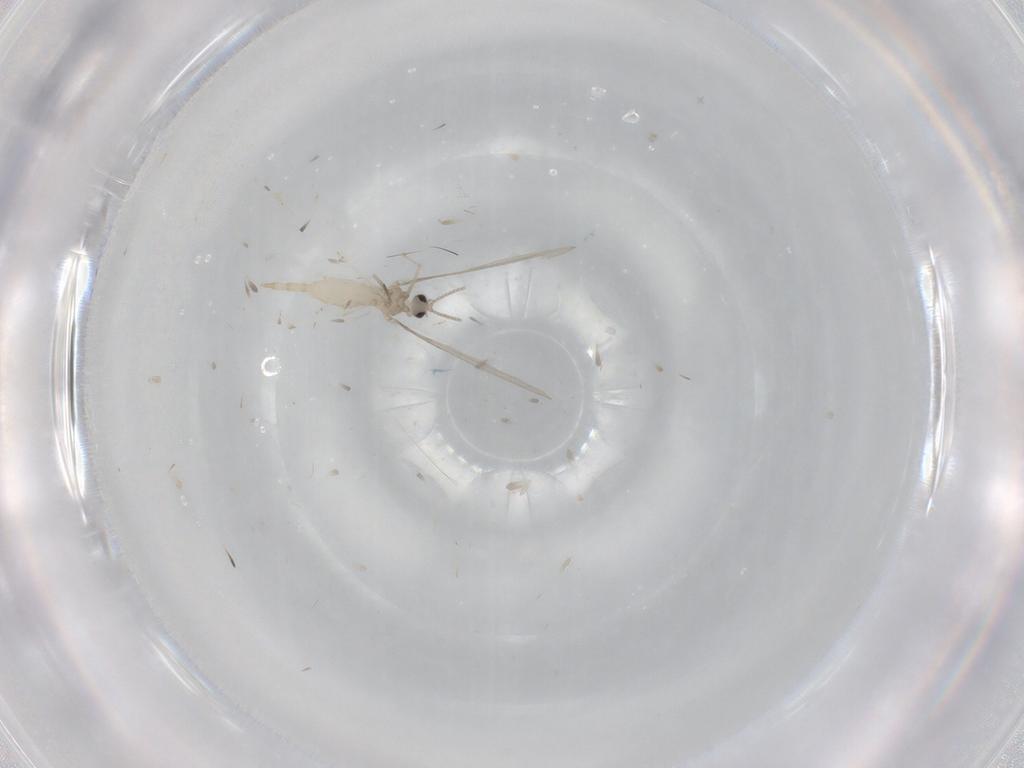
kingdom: Animalia
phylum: Arthropoda
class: Insecta
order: Diptera
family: Cecidomyiidae
